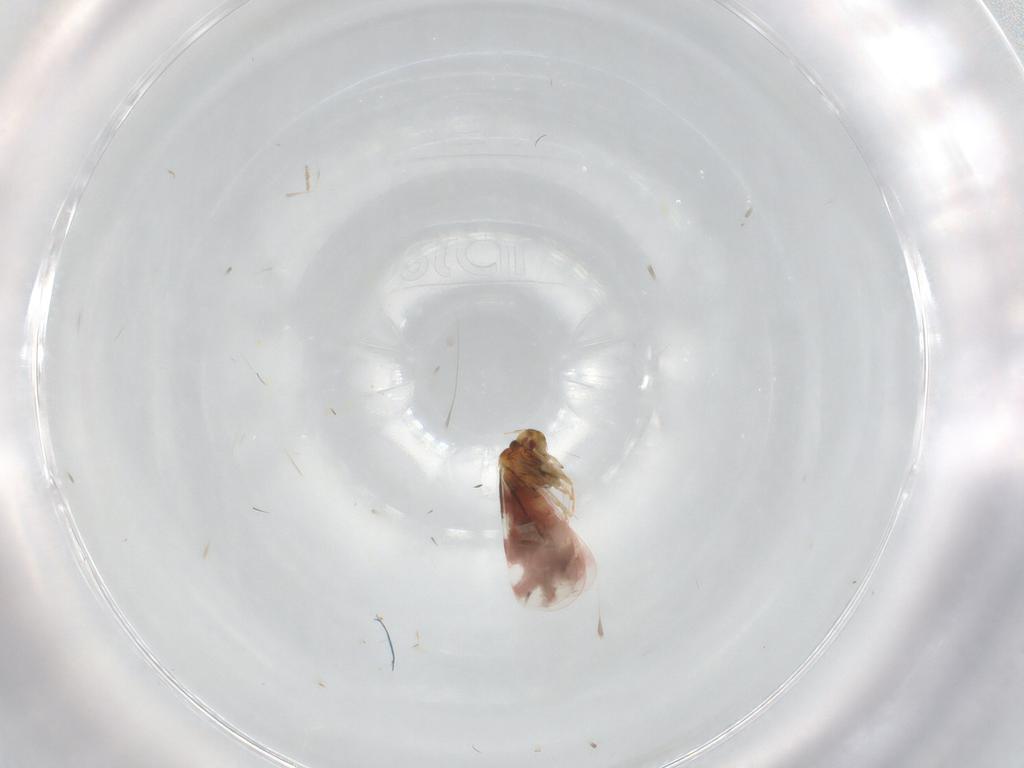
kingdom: Animalia
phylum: Arthropoda
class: Insecta
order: Hemiptera
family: Aleyrodidae
